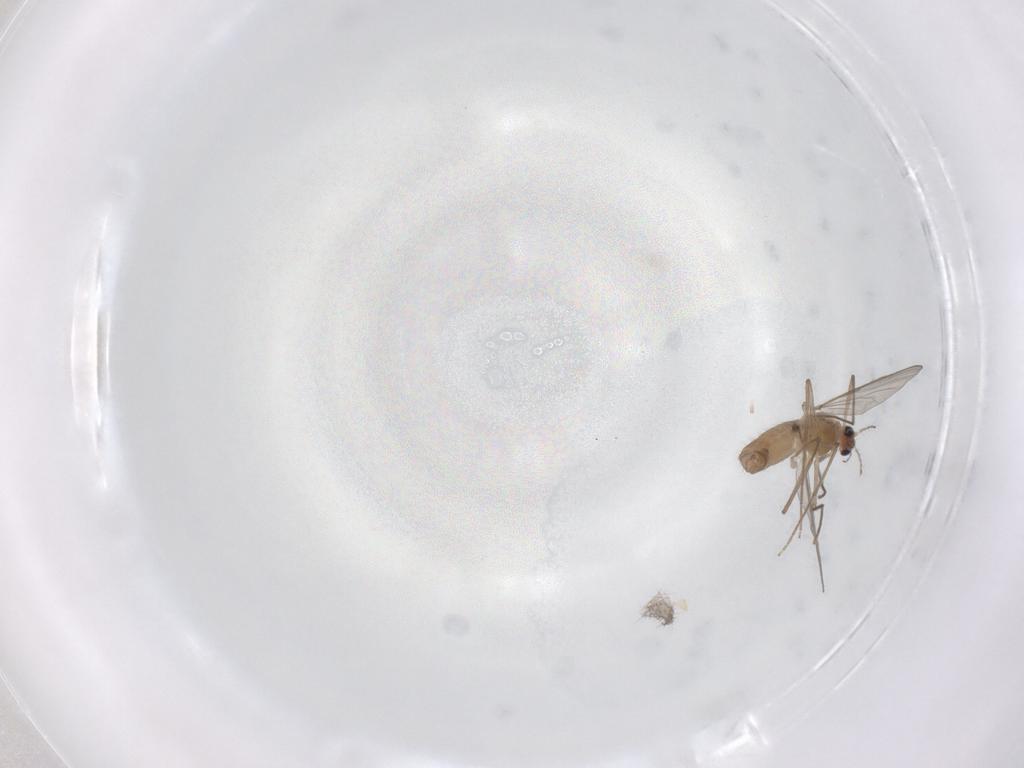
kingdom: Animalia
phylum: Arthropoda
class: Insecta
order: Diptera
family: Chironomidae
